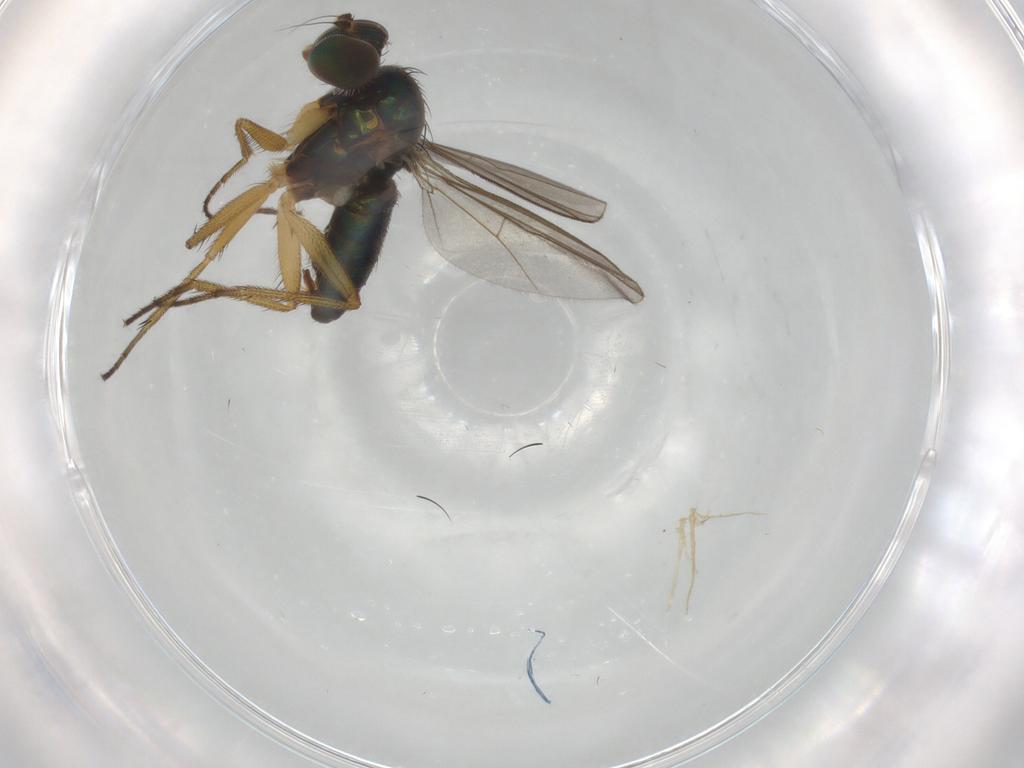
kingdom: Animalia
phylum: Arthropoda
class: Insecta
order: Diptera
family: Dolichopodidae
